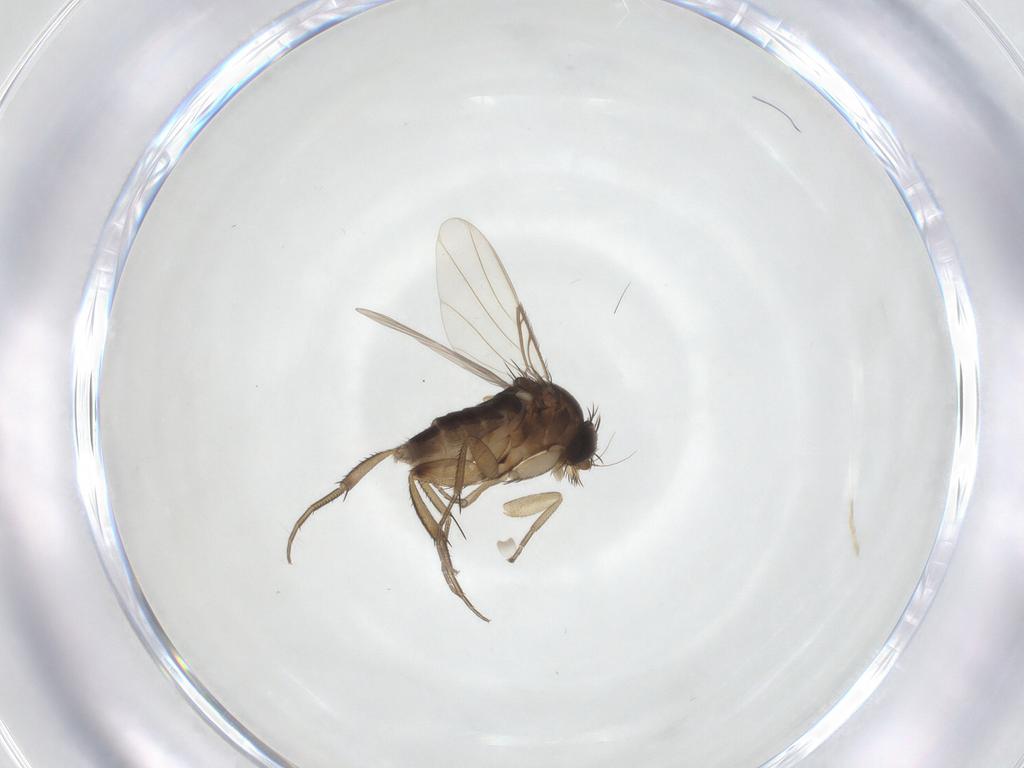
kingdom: Animalia
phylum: Arthropoda
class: Insecta
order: Diptera
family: Phoridae
